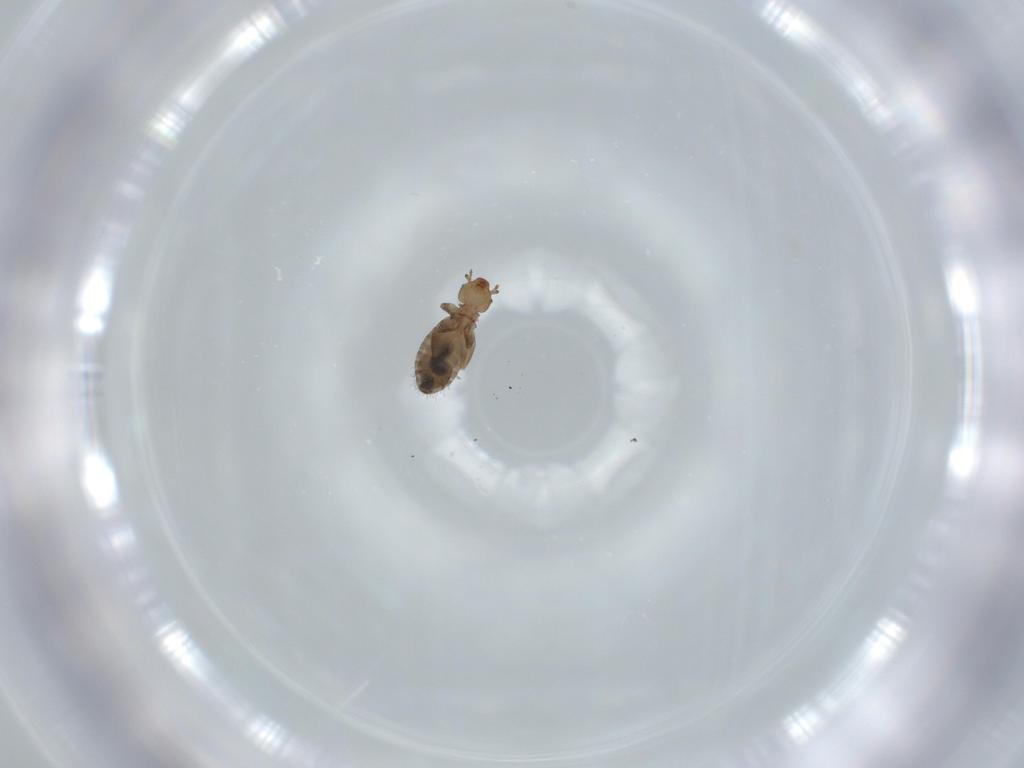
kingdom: Animalia
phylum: Arthropoda
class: Insecta
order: Psocodea
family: Liposcelididae
